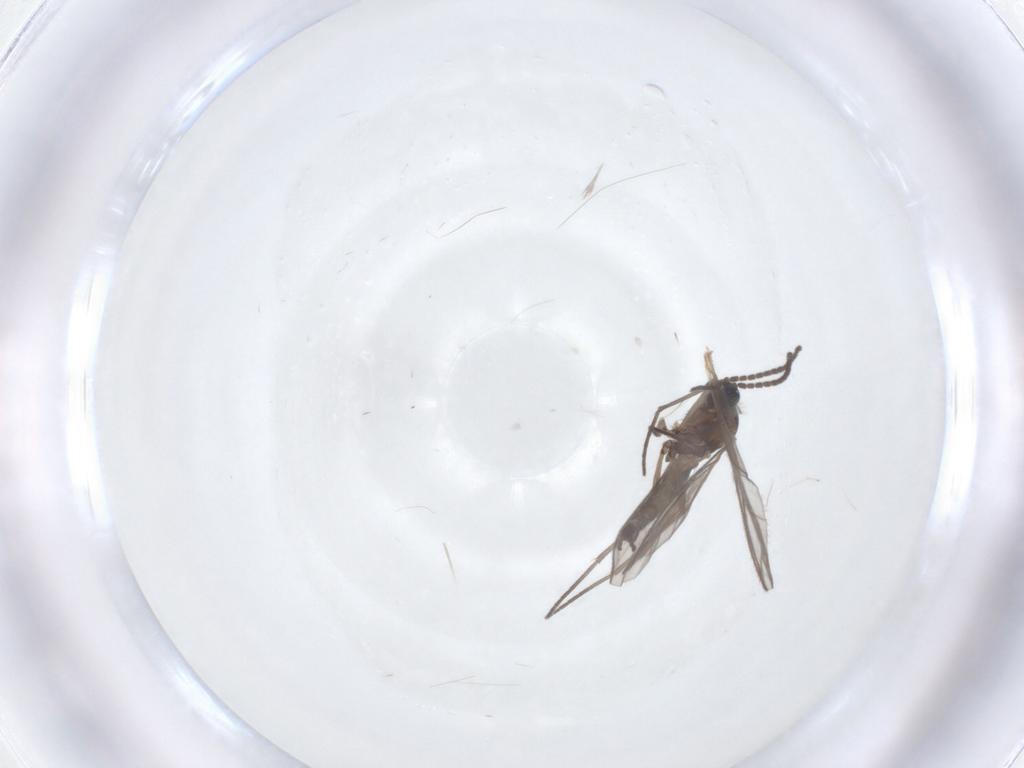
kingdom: Animalia
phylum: Arthropoda
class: Insecta
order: Diptera
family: Sciaridae
